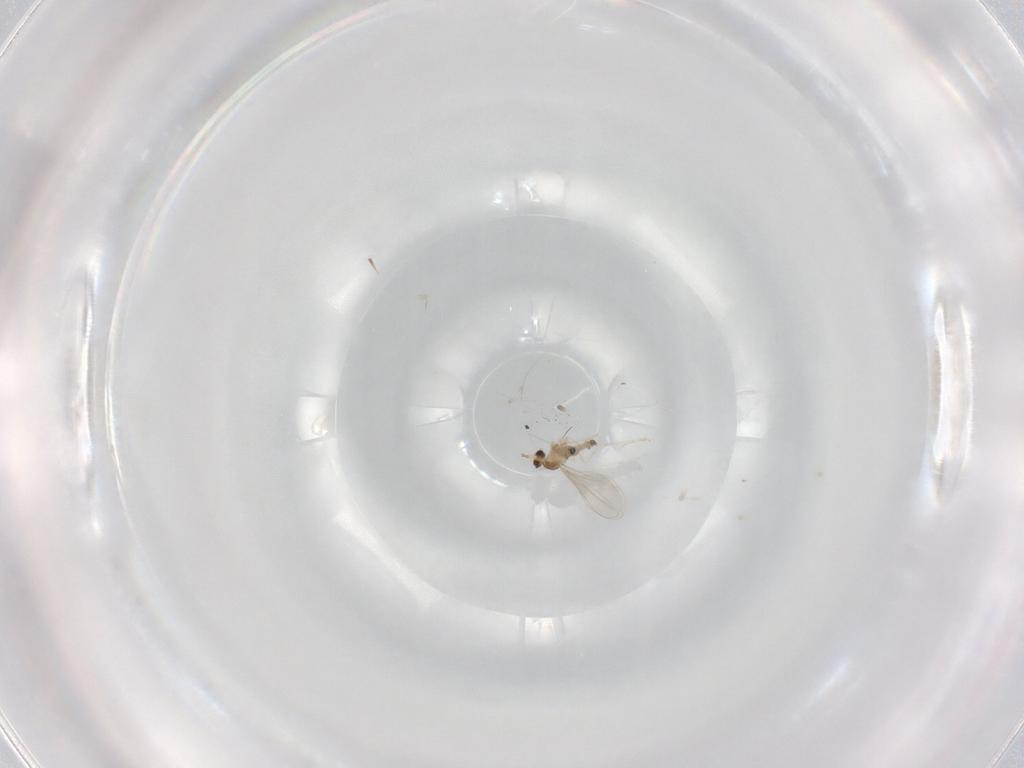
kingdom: Animalia
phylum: Arthropoda
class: Insecta
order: Diptera
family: Cecidomyiidae
